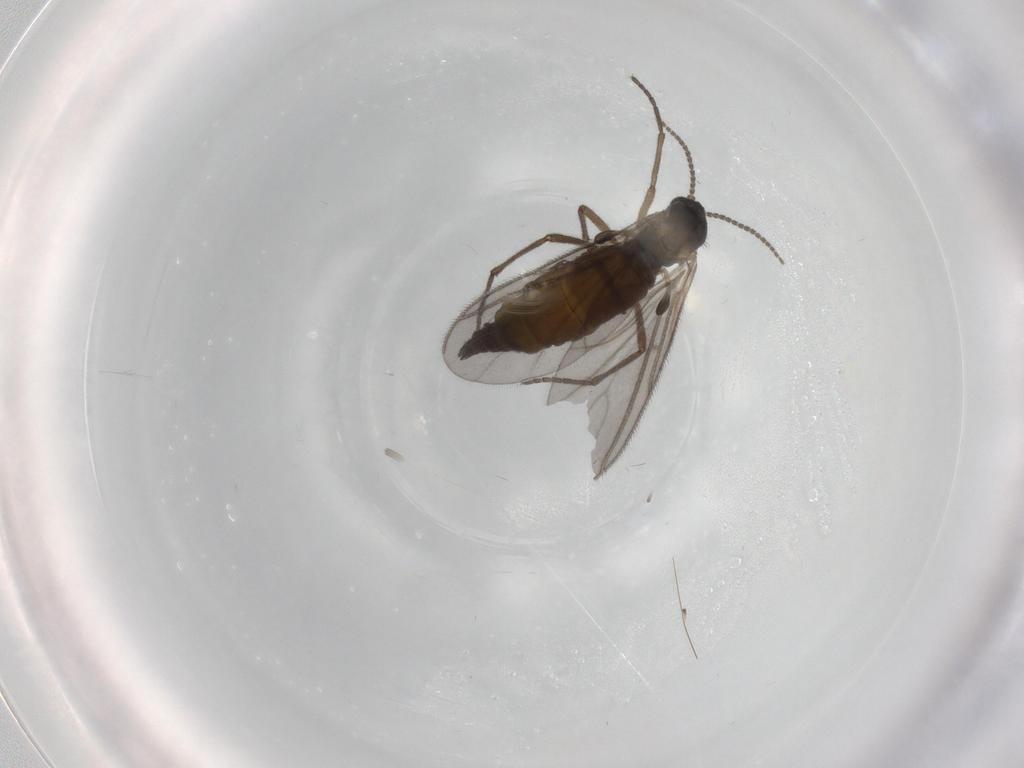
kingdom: Animalia
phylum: Arthropoda
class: Insecta
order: Diptera
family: Sciaridae
